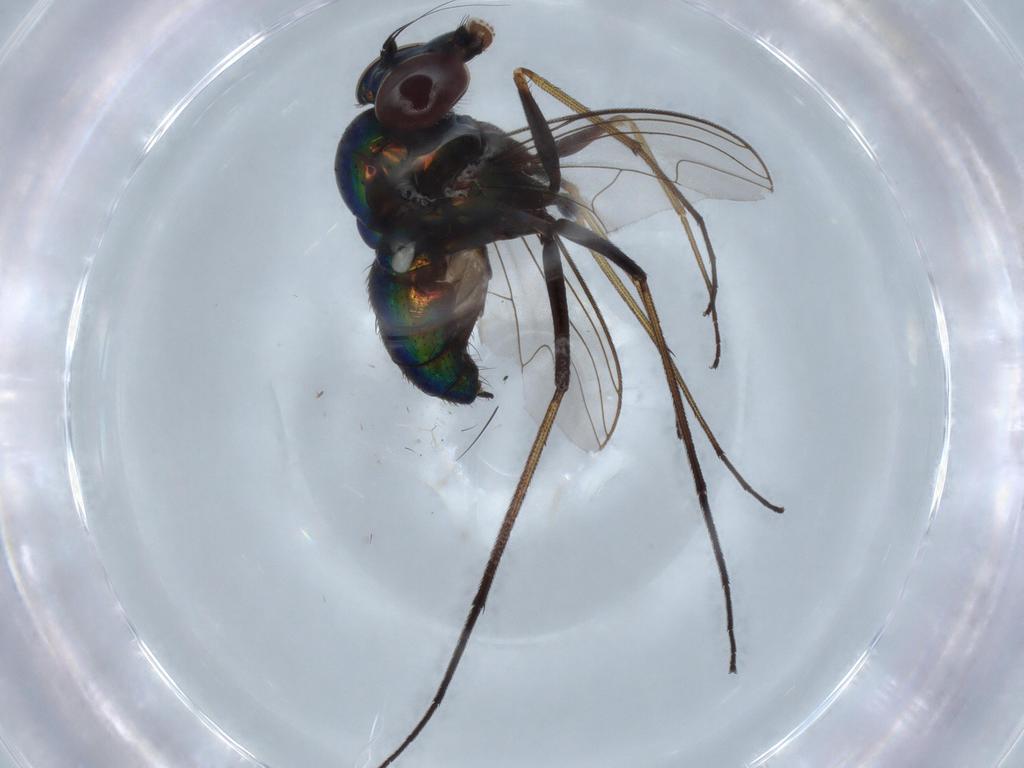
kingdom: Animalia
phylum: Arthropoda
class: Insecta
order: Diptera
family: Dolichopodidae
